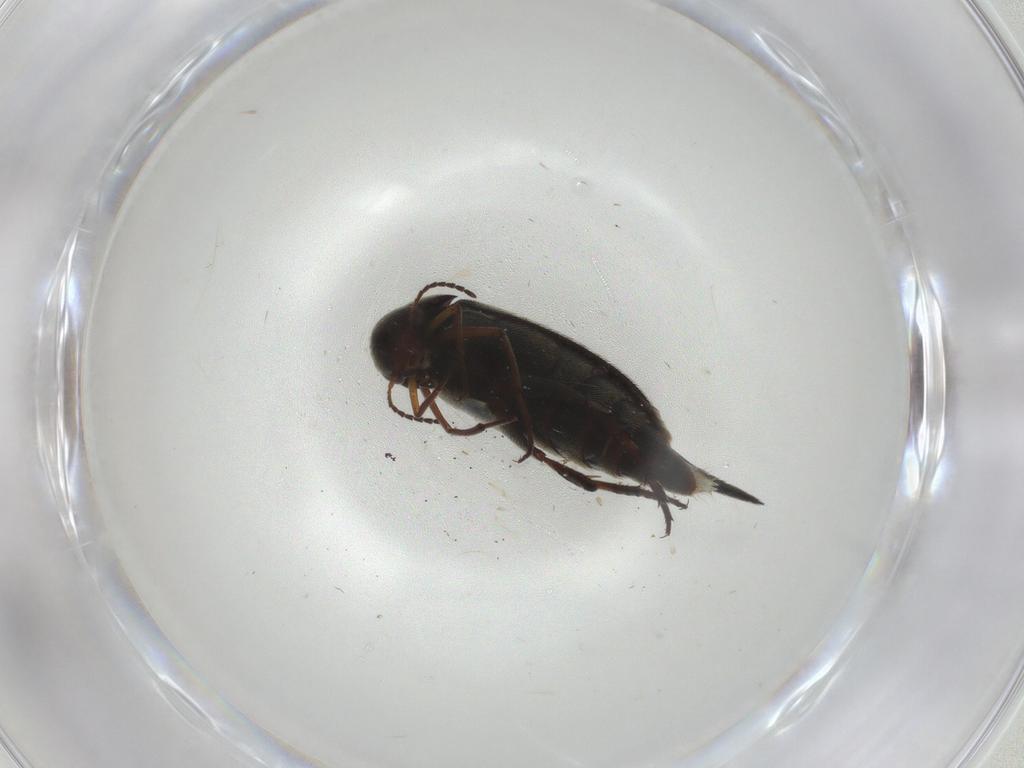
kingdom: Animalia
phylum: Arthropoda
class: Insecta
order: Coleoptera
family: Mordellidae
